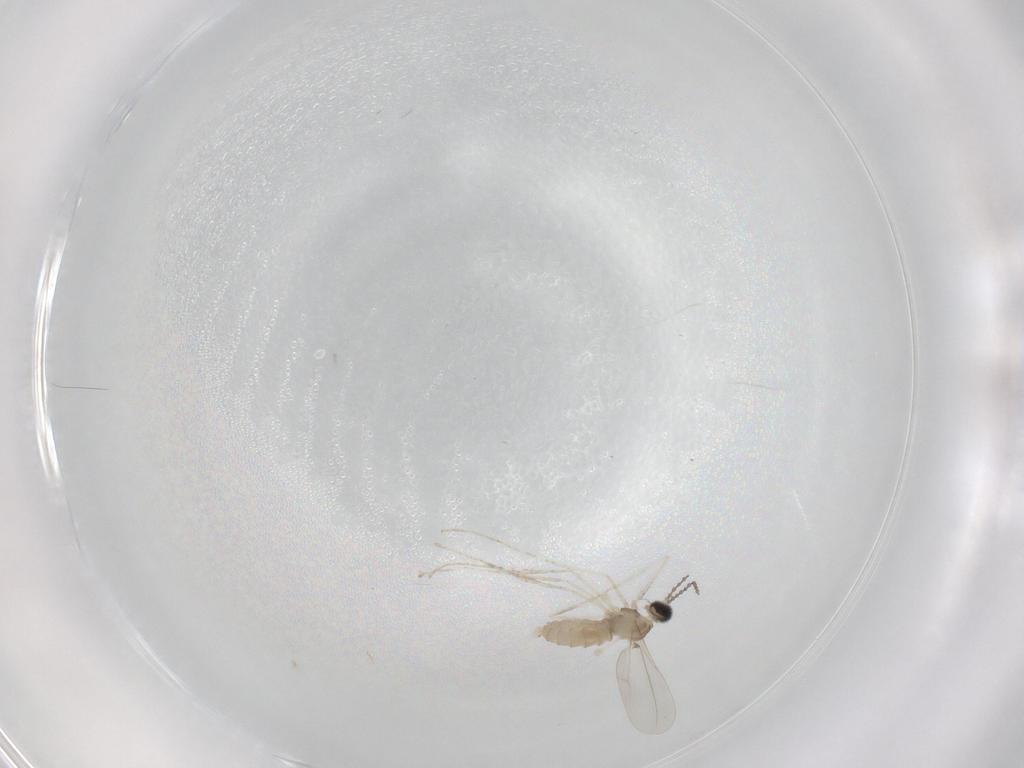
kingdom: Animalia
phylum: Arthropoda
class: Insecta
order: Diptera
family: Cecidomyiidae
